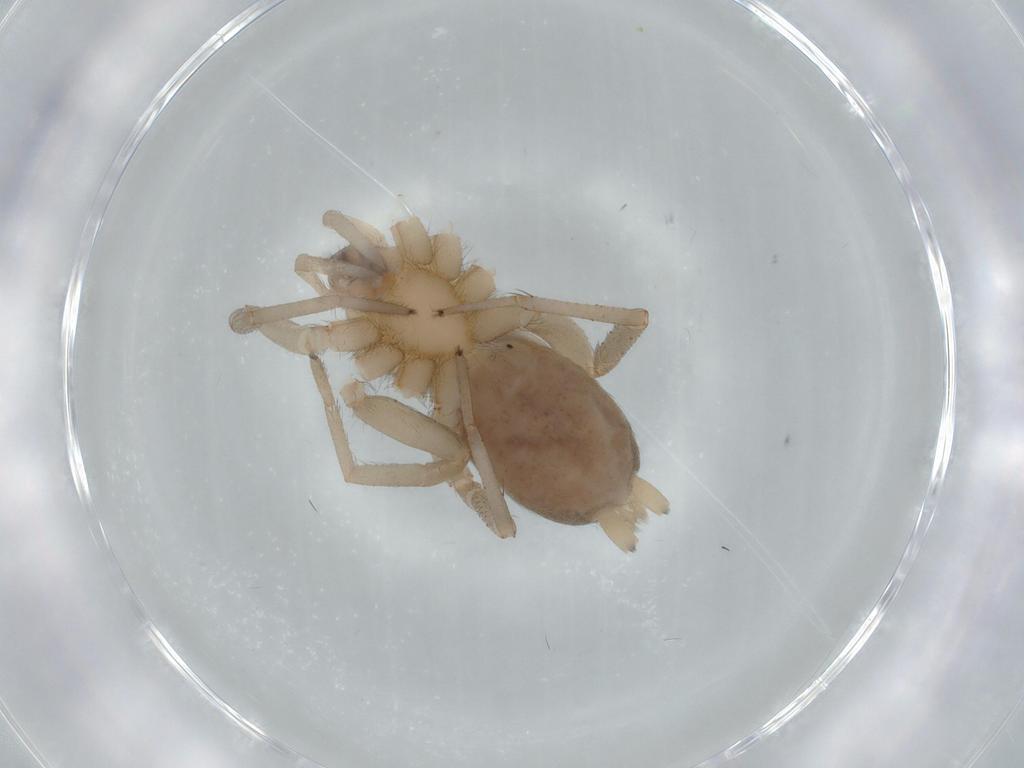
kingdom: Animalia
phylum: Arthropoda
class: Arachnida
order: Araneae
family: Gnaphosidae
